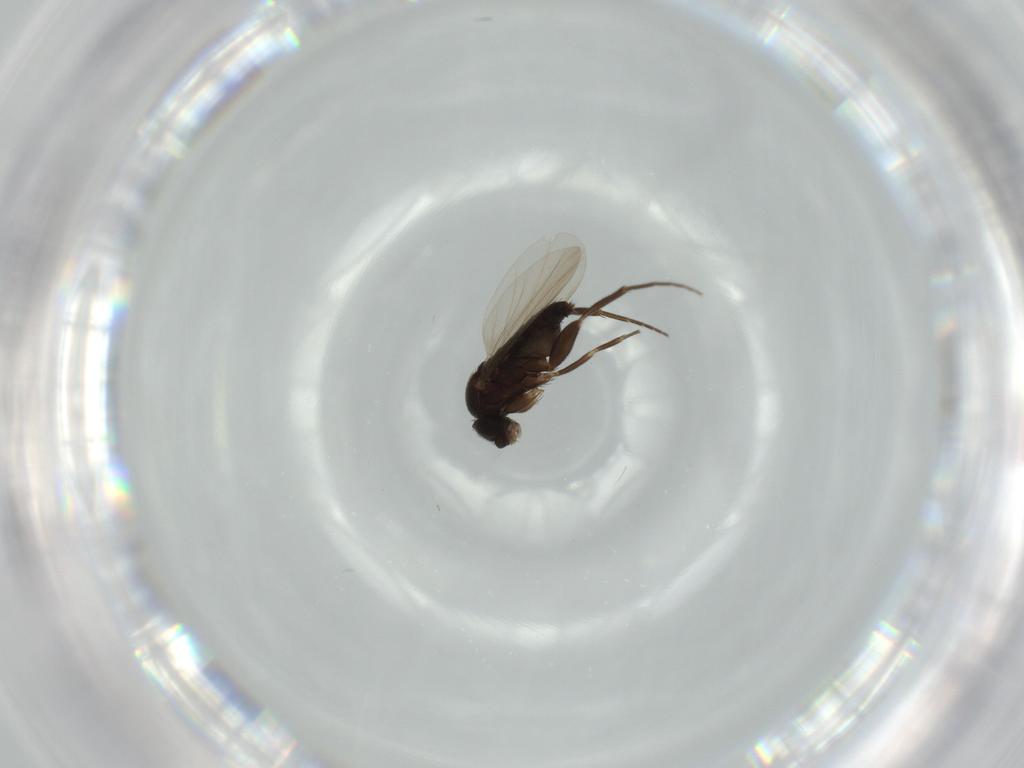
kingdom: Animalia
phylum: Arthropoda
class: Insecta
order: Diptera
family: Phoridae
